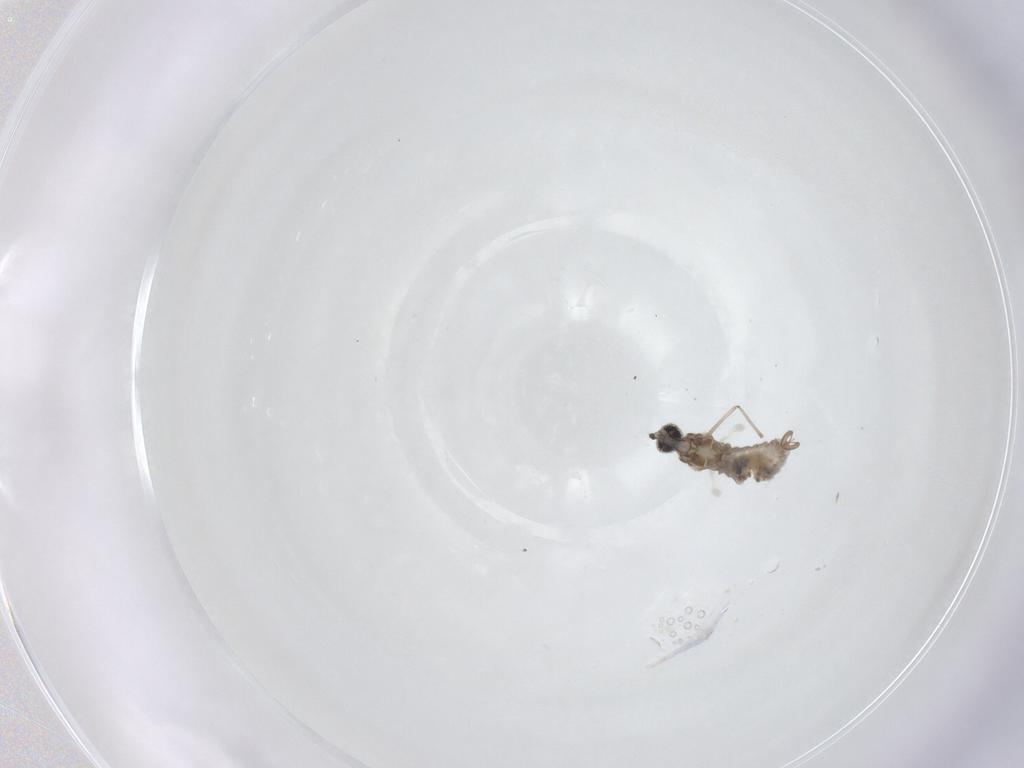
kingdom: Animalia
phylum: Arthropoda
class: Insecta
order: Diptera
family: Cecidomyiidae
